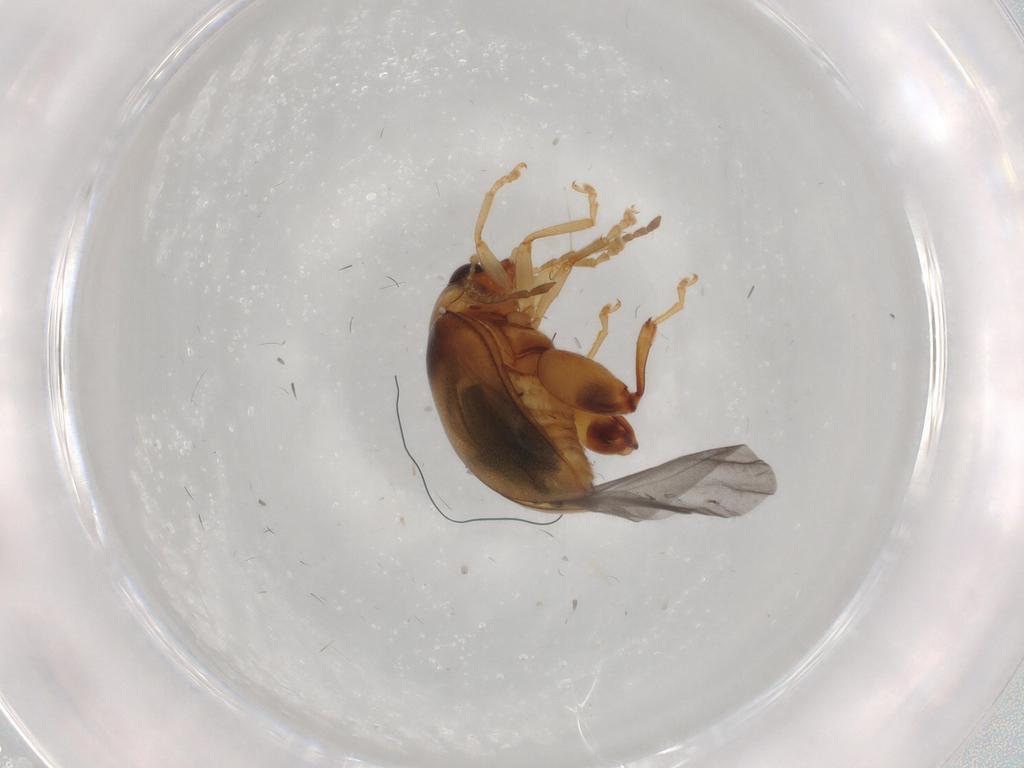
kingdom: Animalia
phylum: Arthropoda
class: Insecta
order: Coleoptera
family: Chrysomelidae
